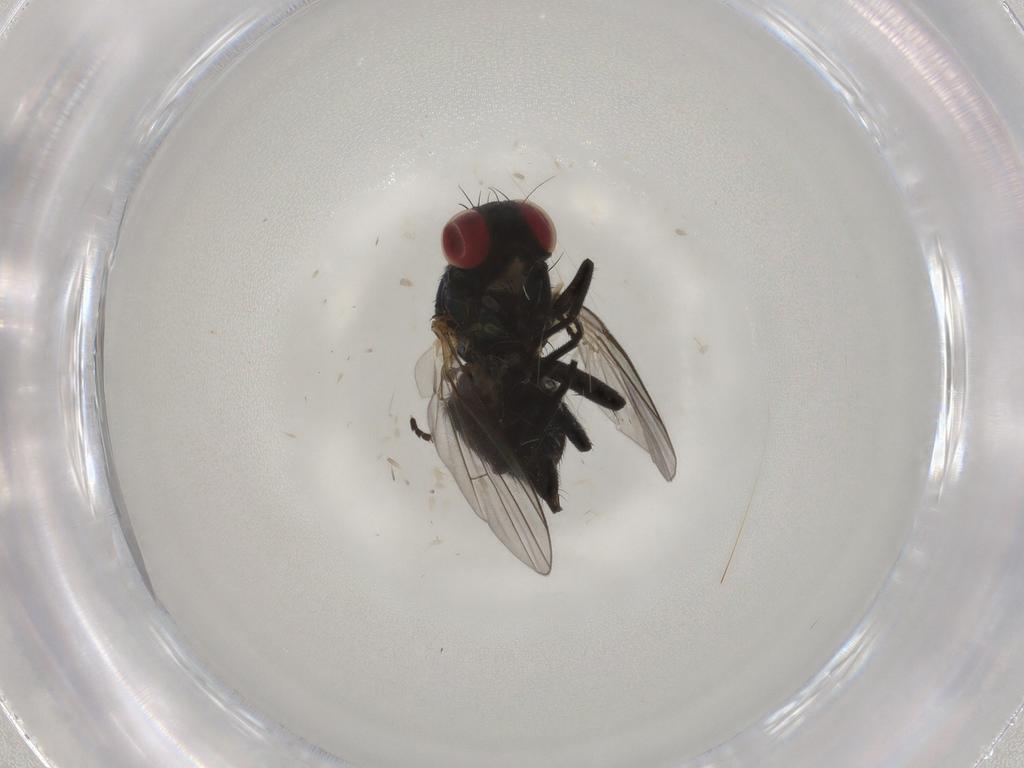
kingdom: Animalia
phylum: Arthropoda
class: Insecta
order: Diptera
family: Agromyzidae
